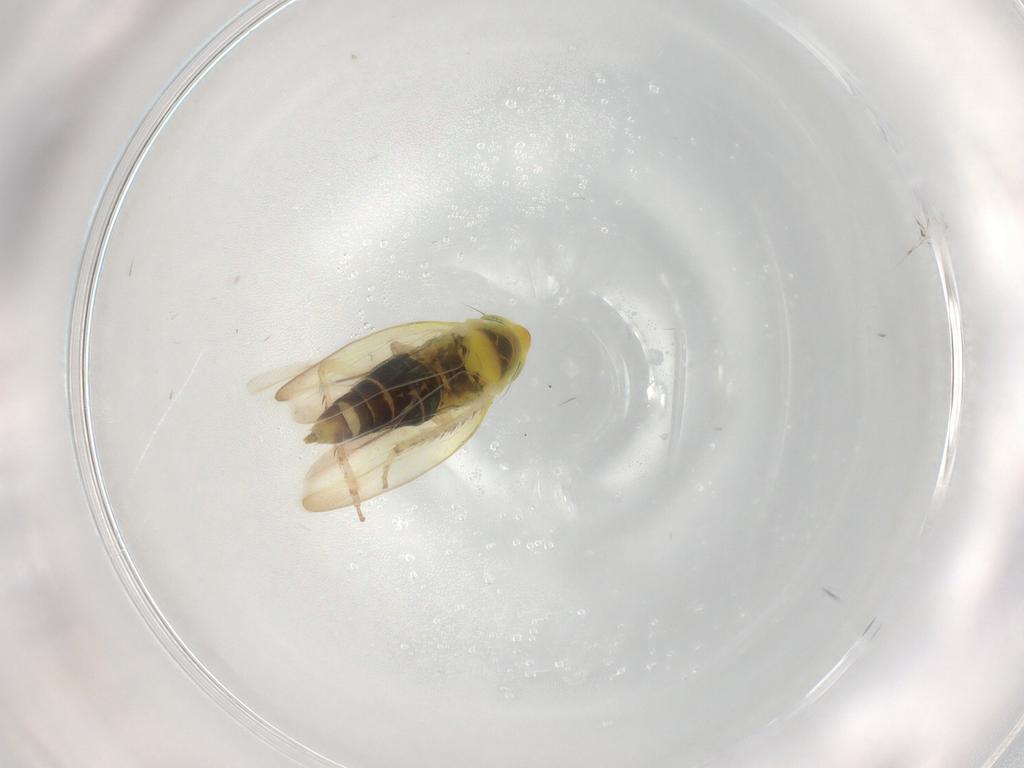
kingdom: Animalia
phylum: Arthropoda
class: Insecta
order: Hemiptera
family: Cicadellidae
